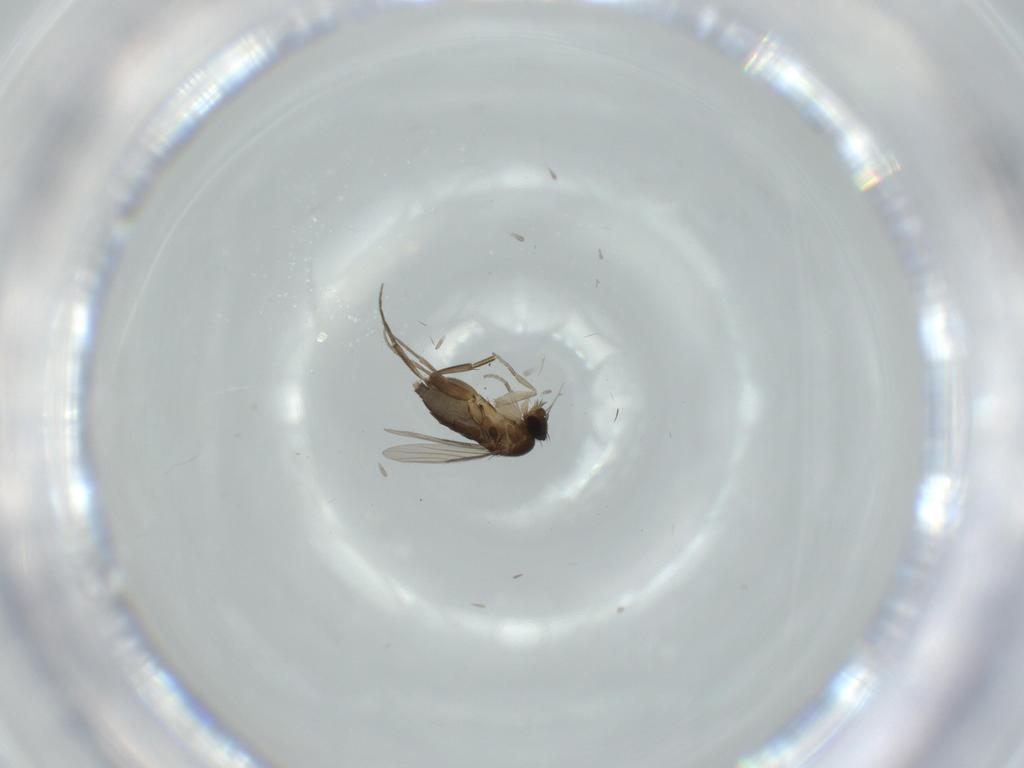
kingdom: Animalia
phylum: Arthropoda
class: Insecta
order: Diptera
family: Phoridae
